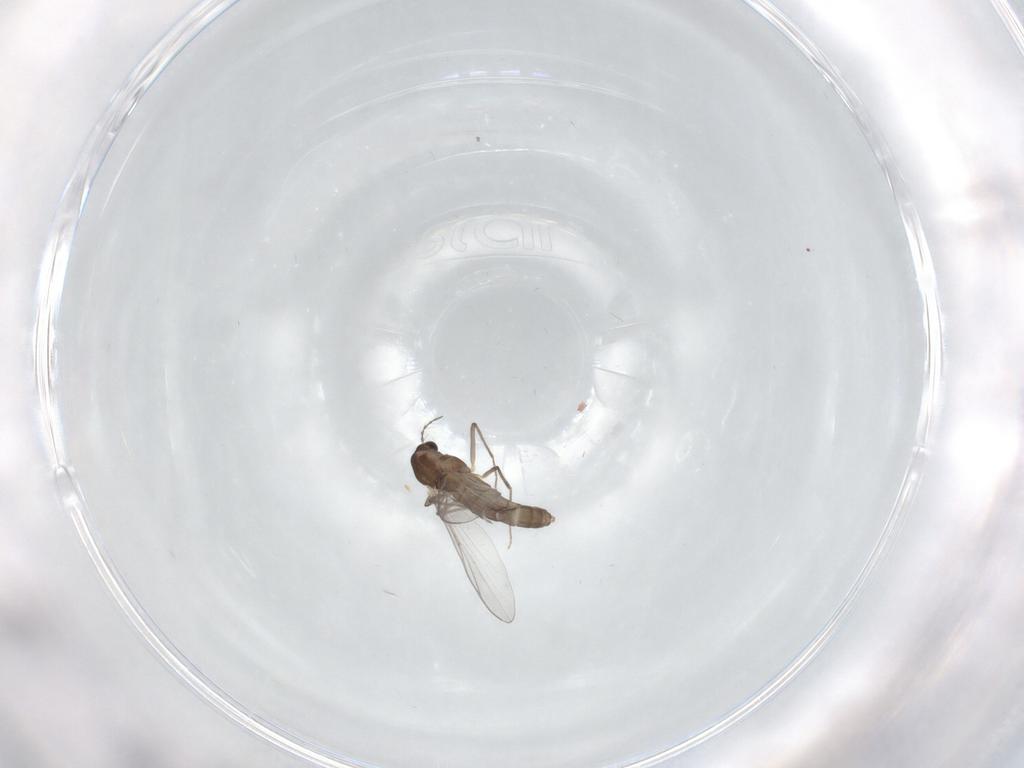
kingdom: Animalia
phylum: Arthropoda
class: Insecta
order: Diptera
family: Chironomidae
